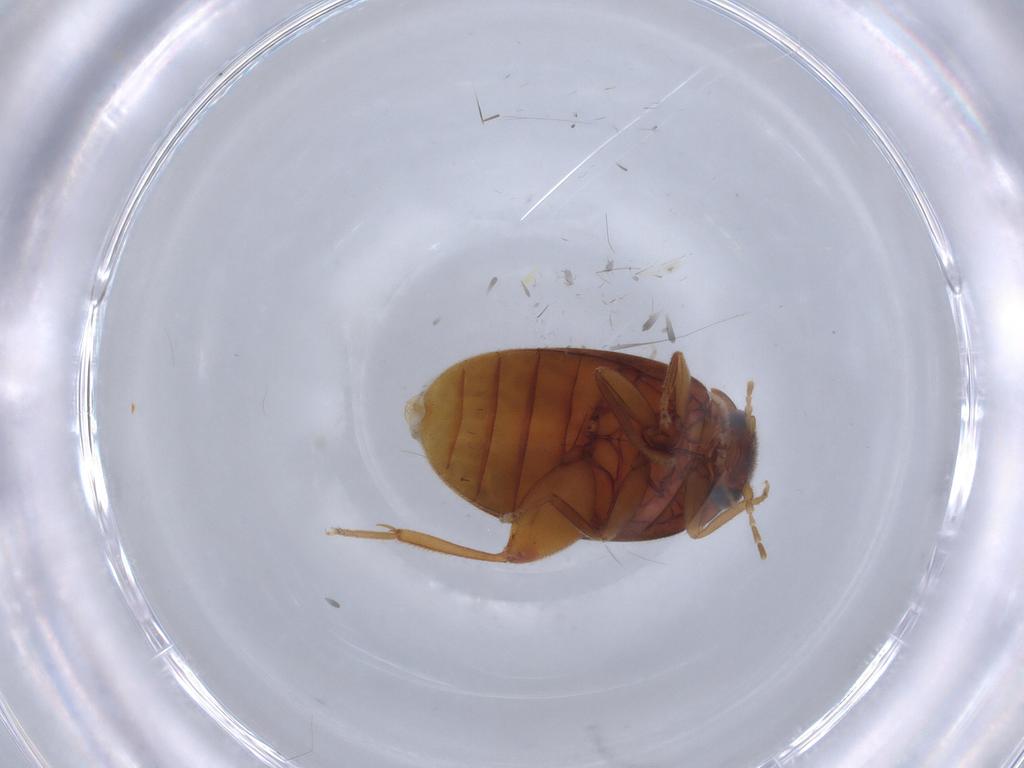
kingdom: Animalia
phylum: Arthropoda
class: Insecta
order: Coleoptera
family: Scirtidae
